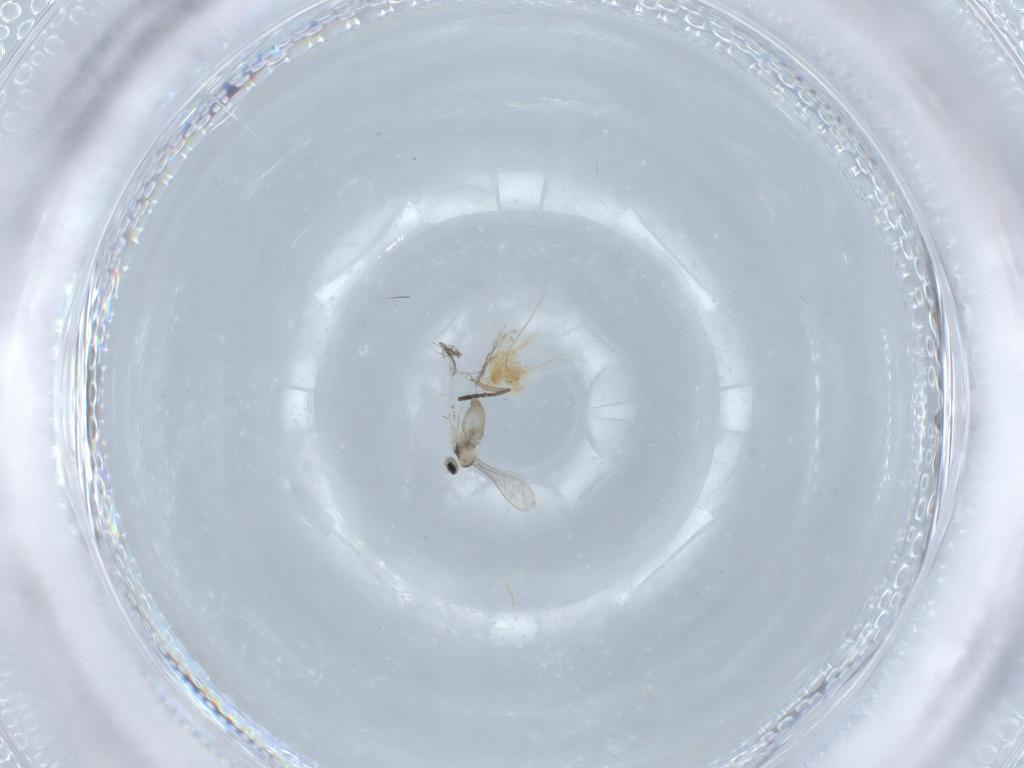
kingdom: Animalia
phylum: Arthropoda
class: Insecta
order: Diptera
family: Cecidomyiidae
